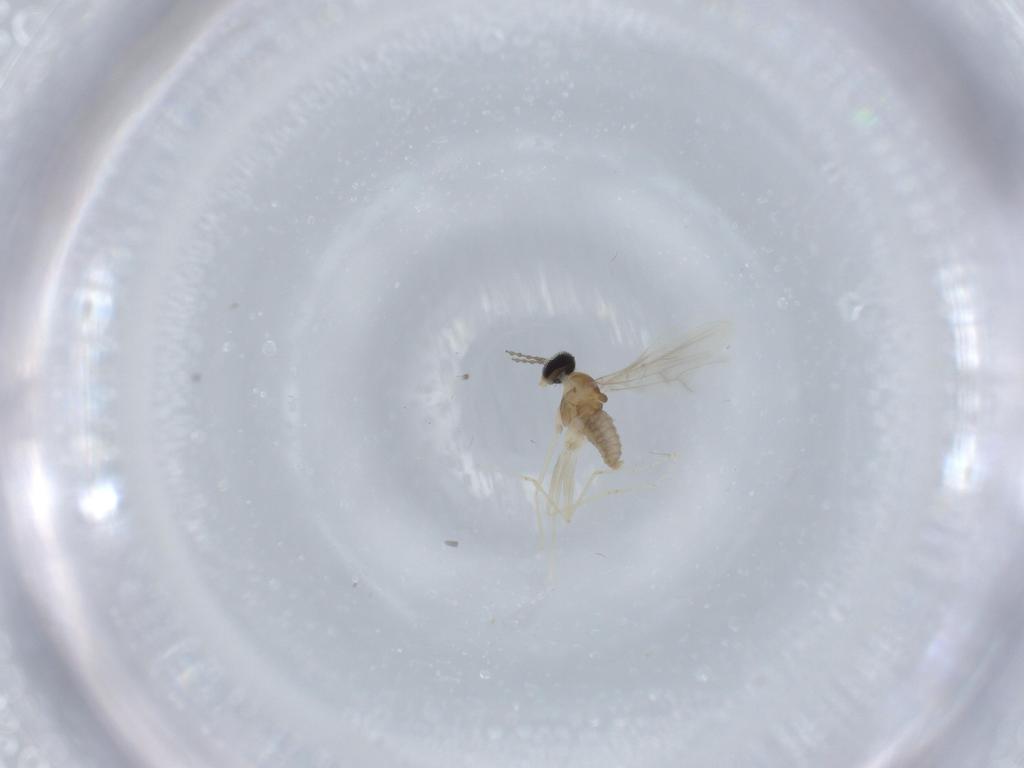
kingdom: Animalia
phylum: Arthropoda
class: Insecta
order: Diptera
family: Cecidomyiidae
